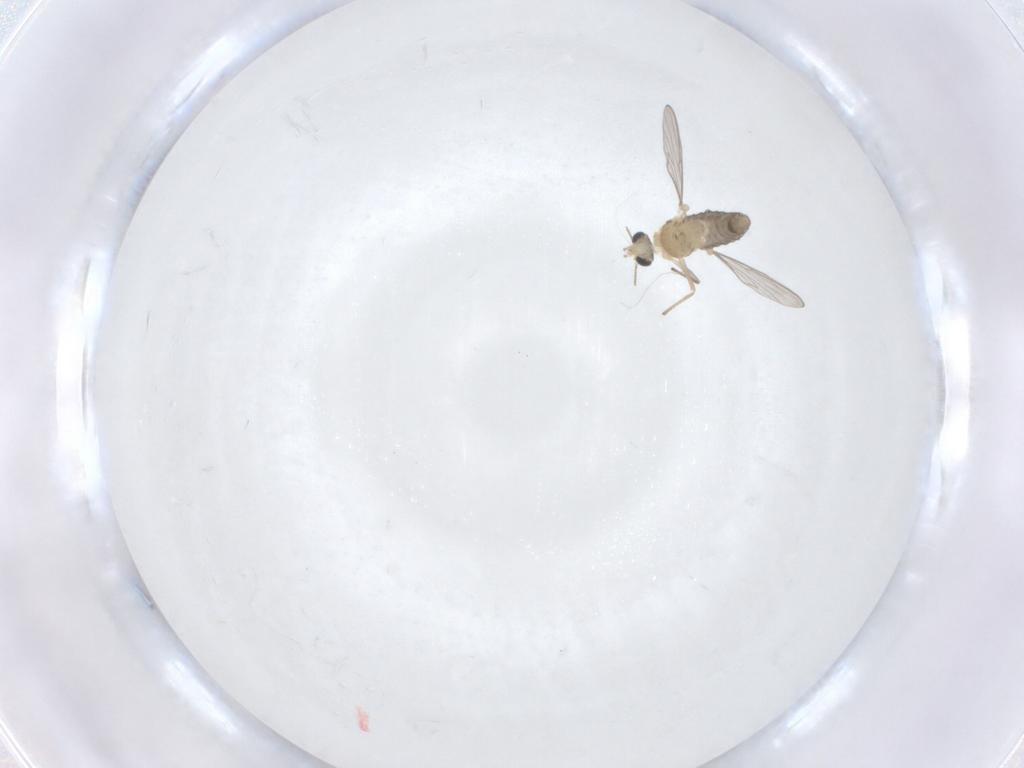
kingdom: Animalia
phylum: Arthropoda
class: Insecta
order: Diptera
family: Chironomidae
